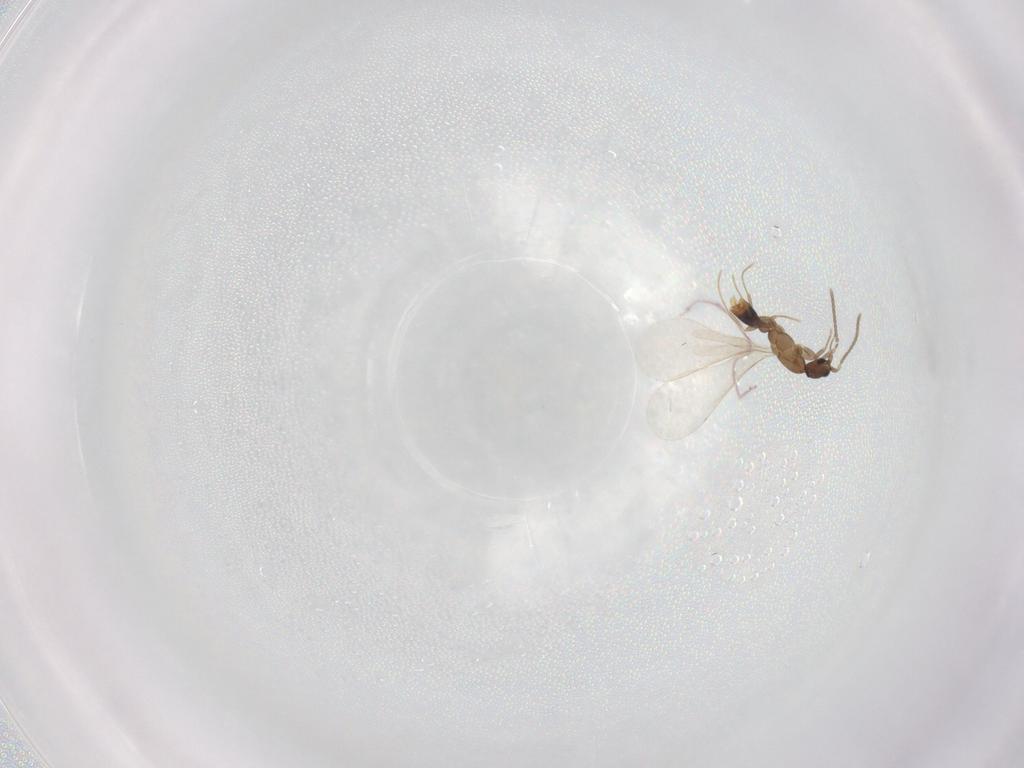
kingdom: Animalia
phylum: Arthropoda
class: Insecta
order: Hymenoptera
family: Formicidae
